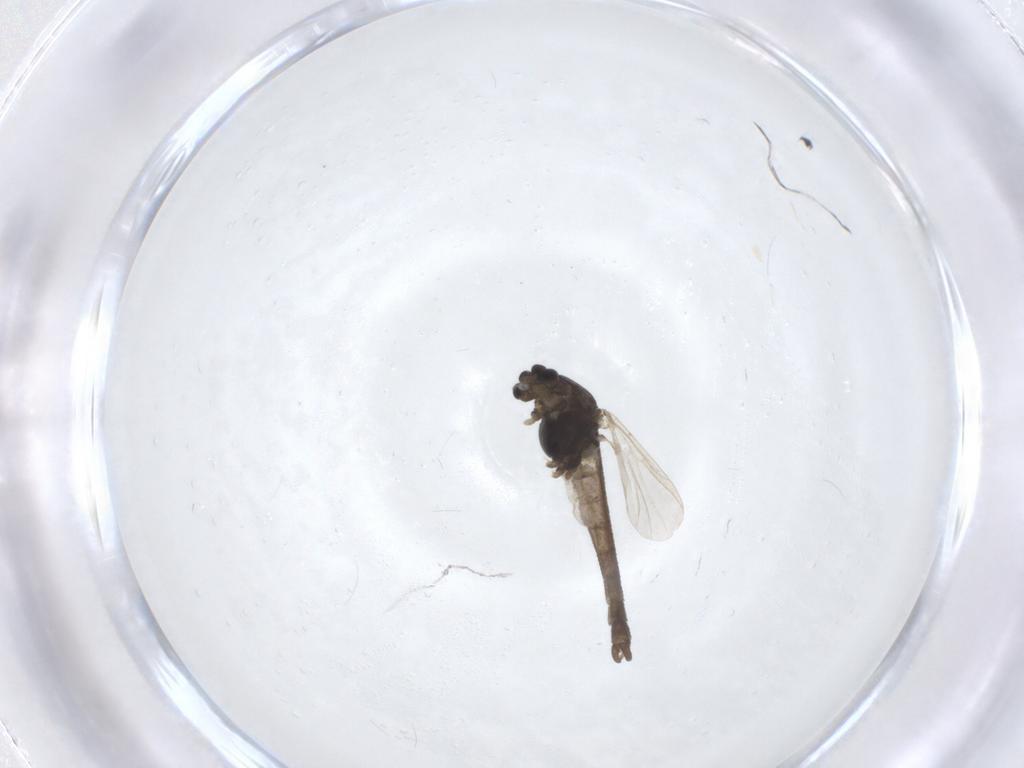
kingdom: Animalia
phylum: Arthropoda
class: Insecta
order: Diptera
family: Chironomidae
